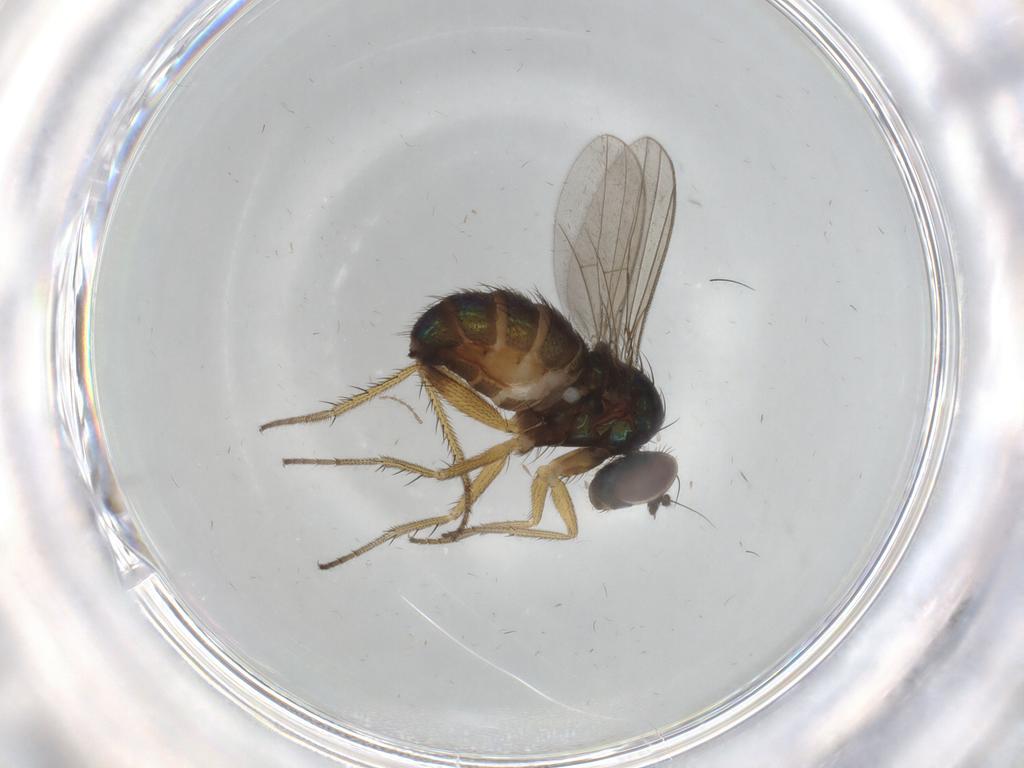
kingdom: Animalia
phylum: Arthropoda
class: Insecta
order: Diptera
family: Dolichopodidae
